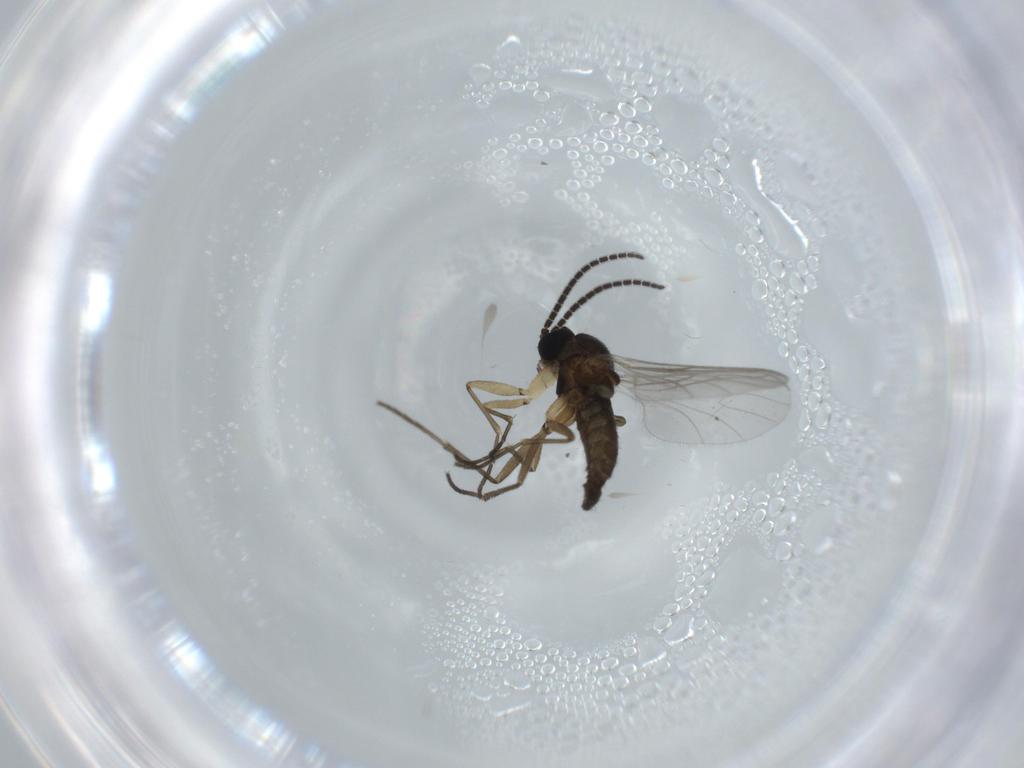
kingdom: Animalia
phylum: Arthropoda
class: Insecta
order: Diptera
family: Sciaridae
